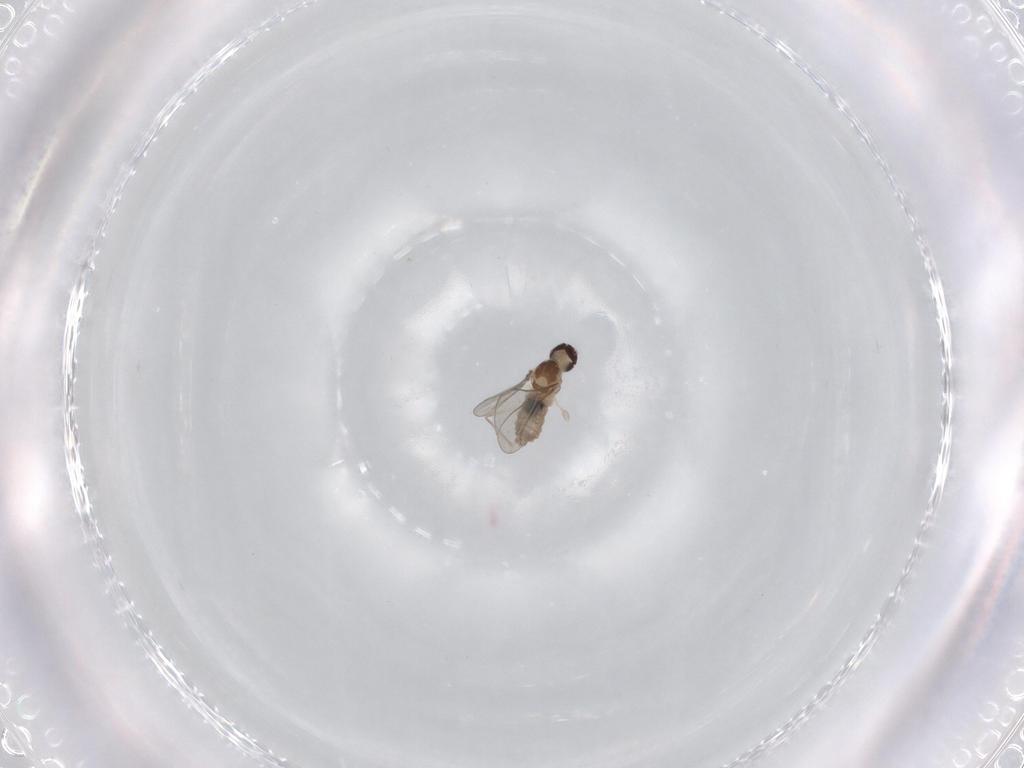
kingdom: Animalia
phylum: Arthropoda
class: Insecta
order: Diptera
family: Cecidomyiidae
